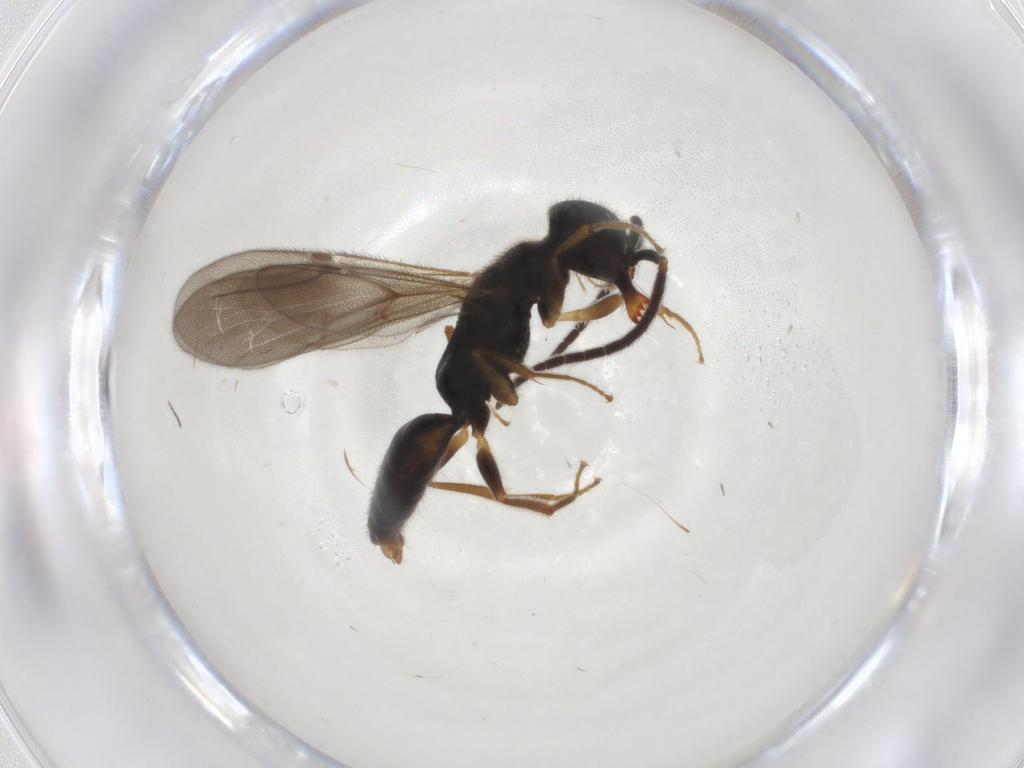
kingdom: Animalia
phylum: Arthropoda
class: Insecta
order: Hymenoptera
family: Bethylidae
